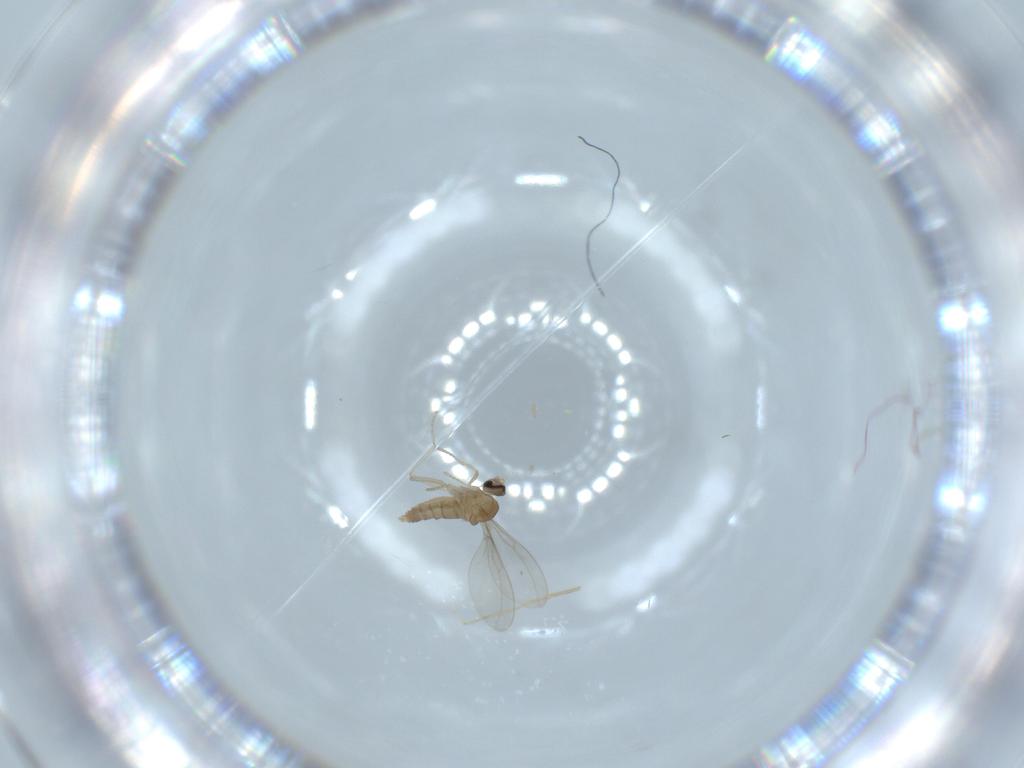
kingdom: Animalia
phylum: Arthropoda
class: Insecta
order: Diptera
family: Cecidomyiidae
